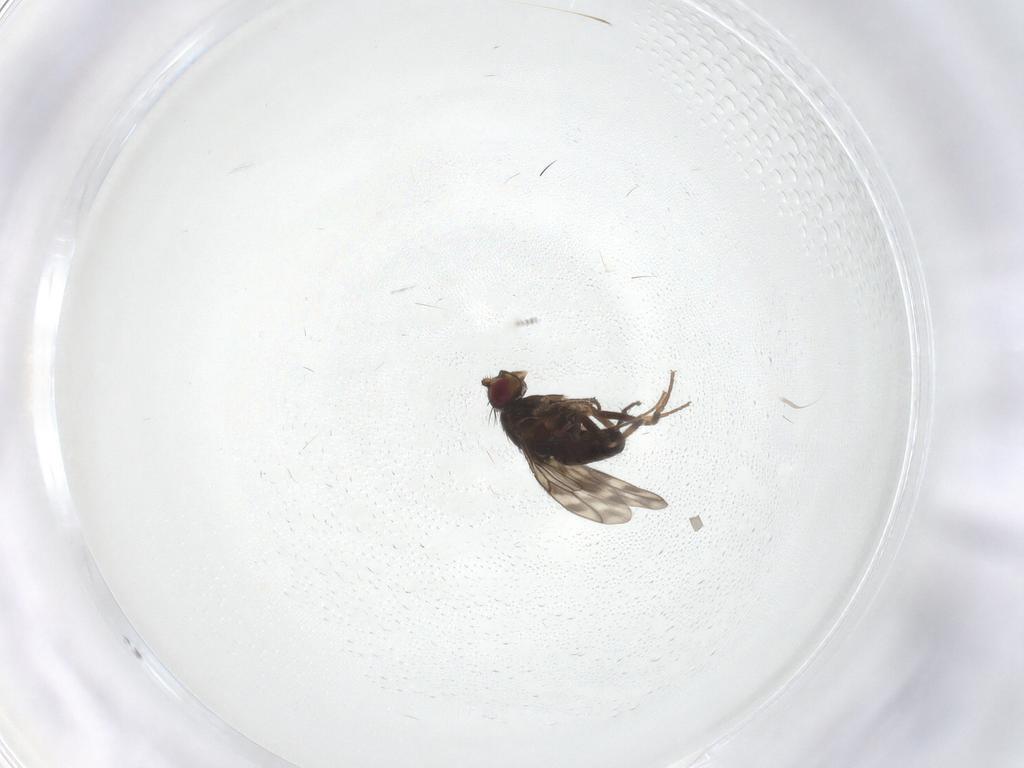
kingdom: Animalia
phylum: Arthropoda
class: Insecta
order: Diptera
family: Sphaeroceridae
